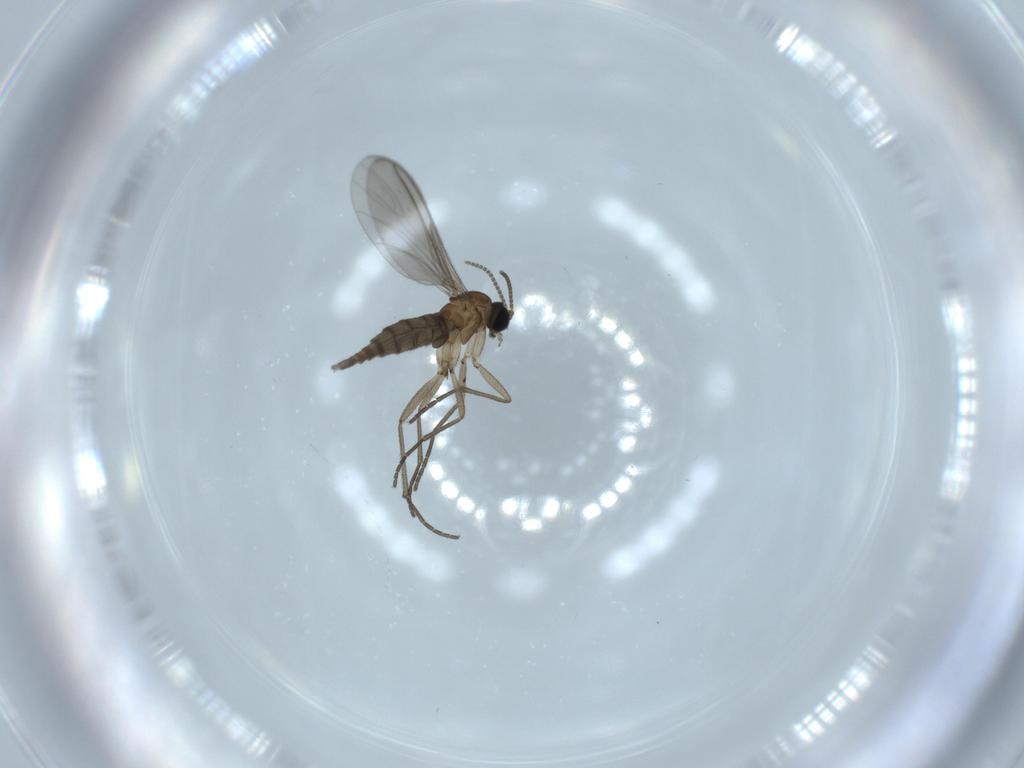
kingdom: Animalia
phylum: Arthropoda
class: Insecta
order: Diptera
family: Sciaridae
